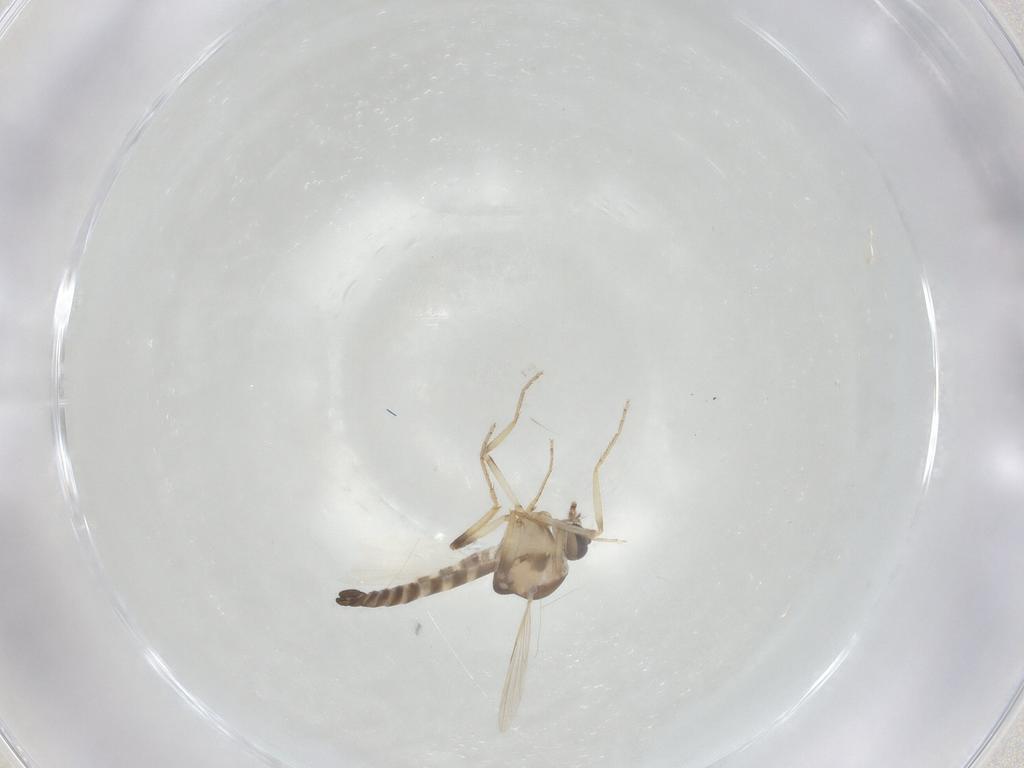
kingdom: Animalia
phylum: Arthropoda
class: Insecta
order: Diptera
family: Ceratopogonidae
